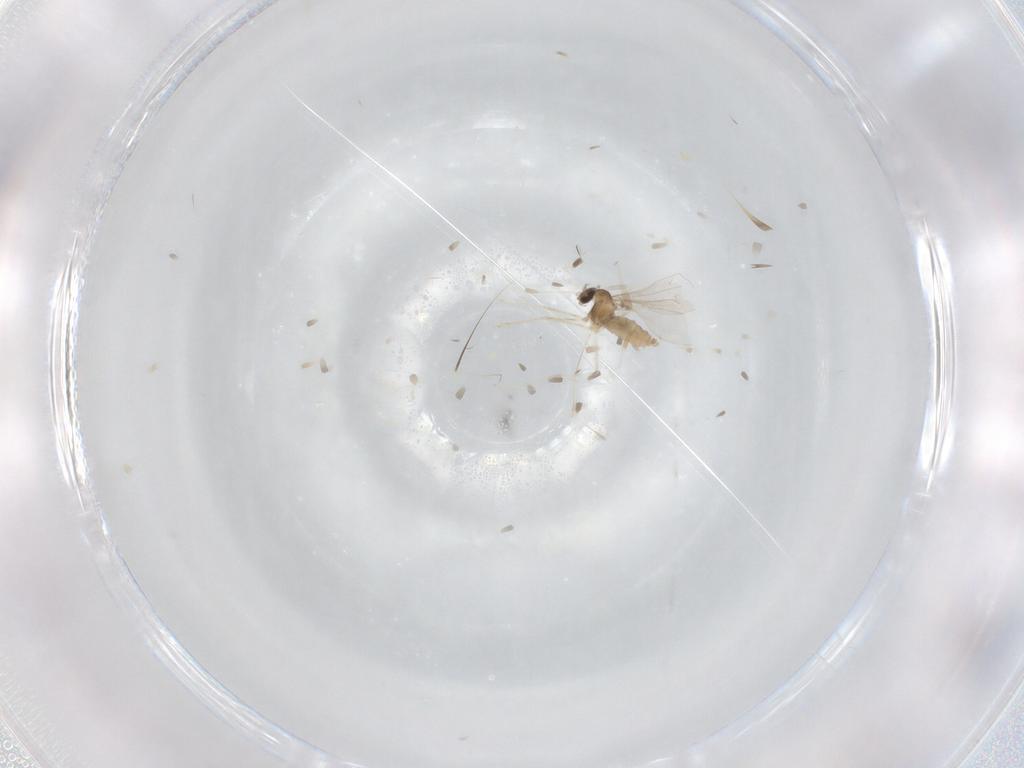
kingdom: Animalia
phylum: Arthropoda
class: Insecta
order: Diptera
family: Cecidomyiidae
